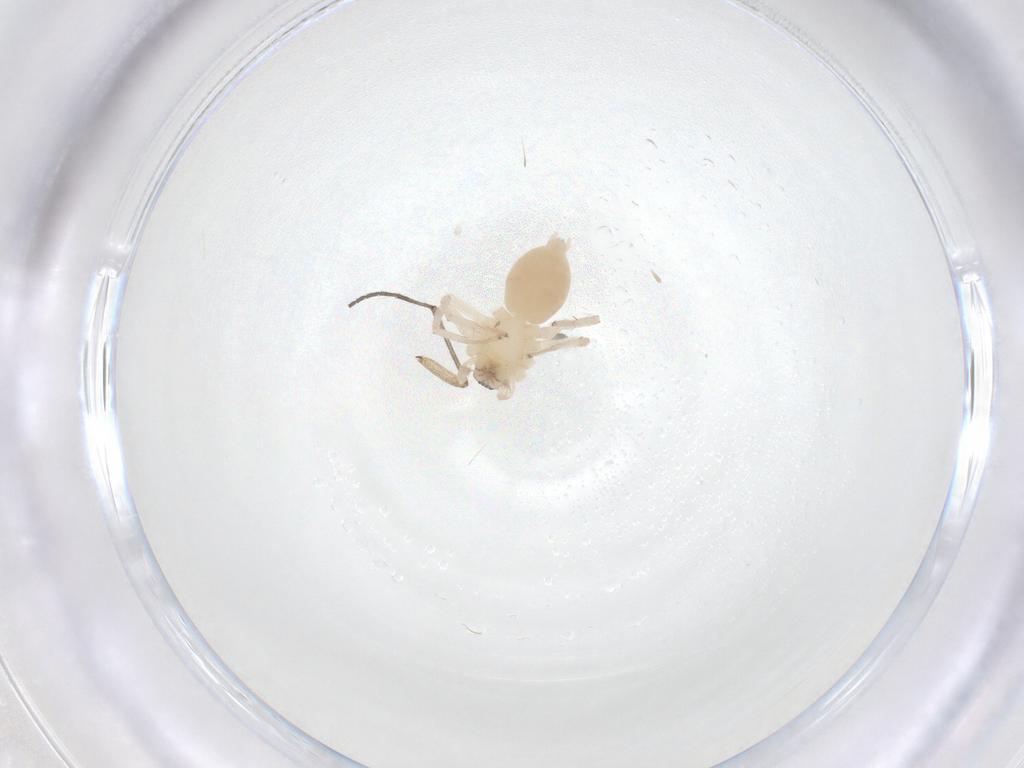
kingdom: Animalia
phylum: Arthropoda
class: Arachnida
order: Araneae
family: Anyphaenidae
